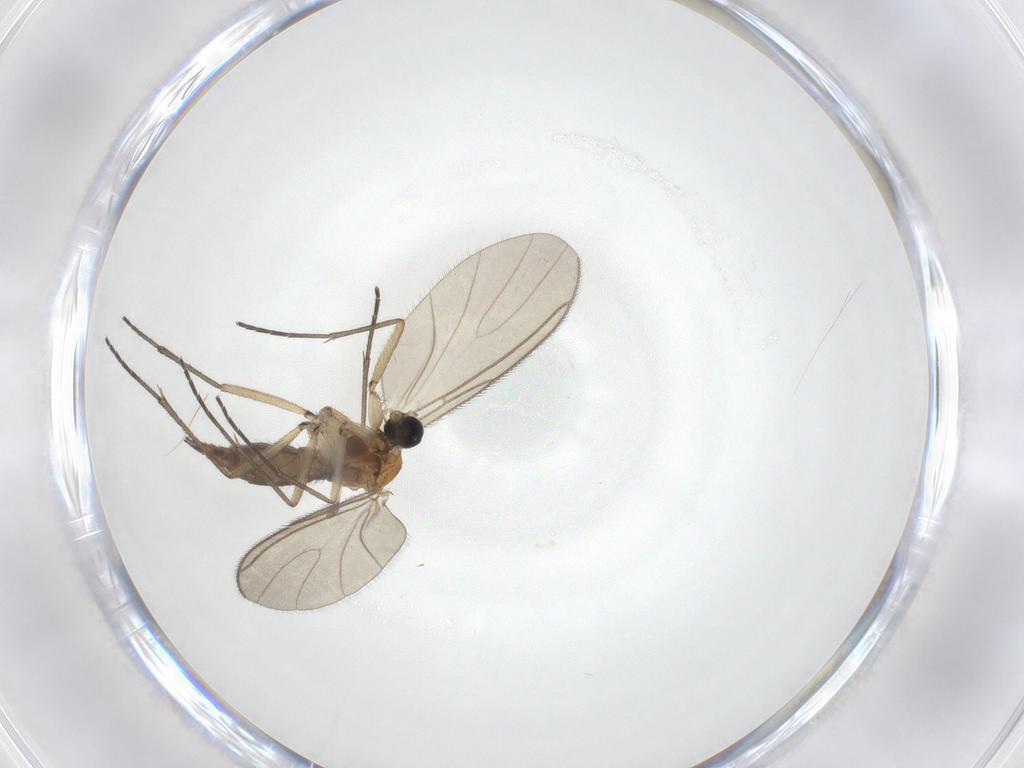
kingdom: Animalia
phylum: Arthropoda
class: Insecta
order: Diptera
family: Sciaridae
